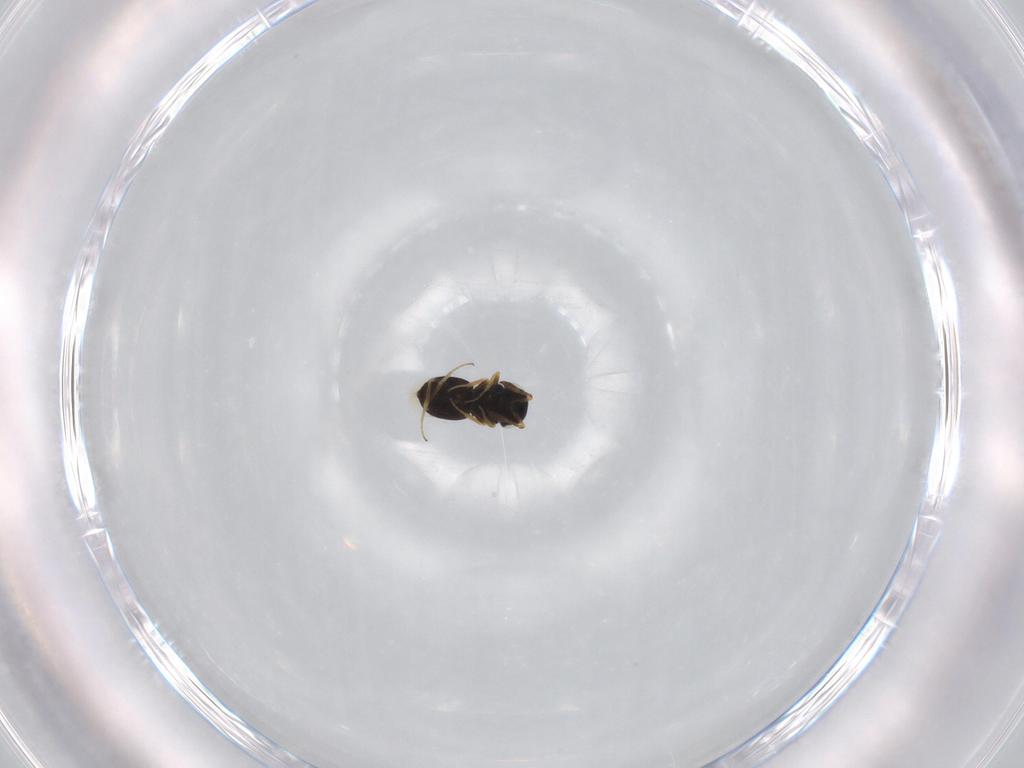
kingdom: Animalia
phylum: Arthropoda
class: Insecta
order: Hymenoptera
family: Scelionidae
